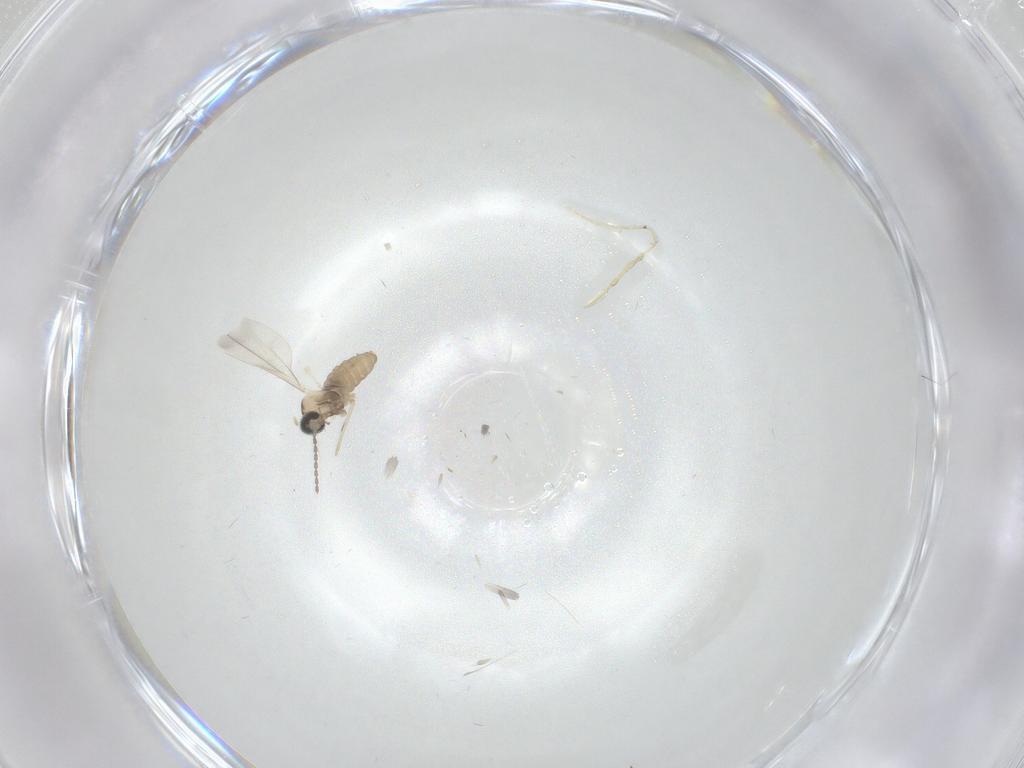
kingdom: Animalia
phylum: Arthropoda
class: Insecta
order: Diptera
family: Cecidomyiidae
